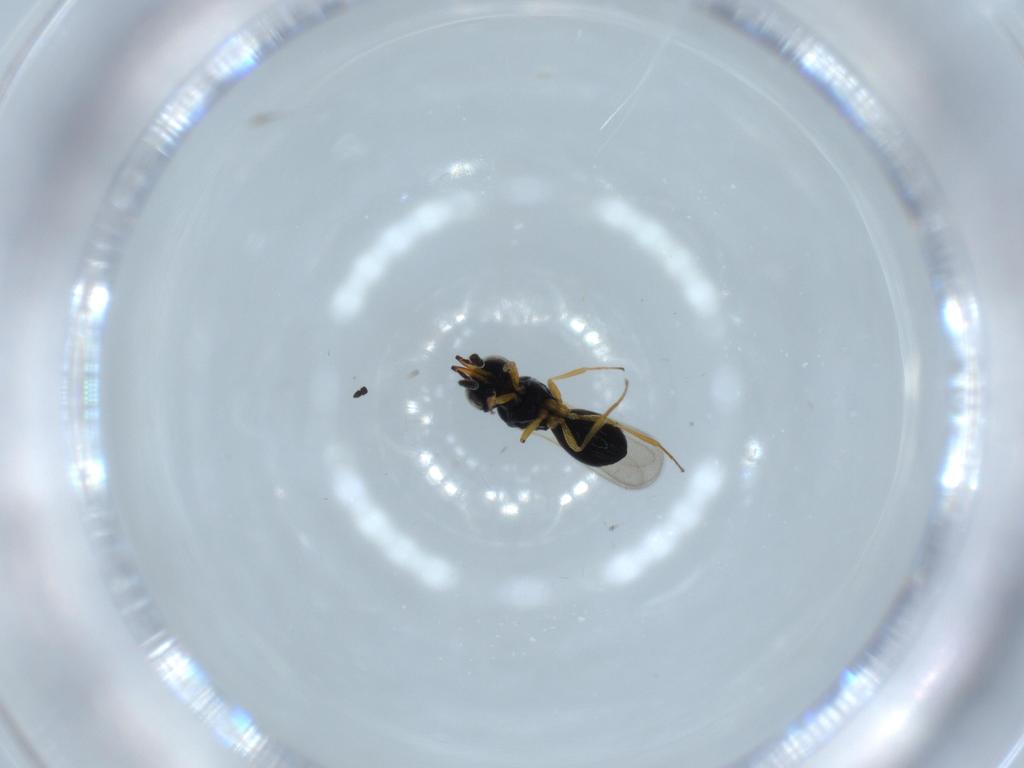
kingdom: Animalia
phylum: Arthropoda
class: Insecta
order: Hymenoptera
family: Scelionidae
